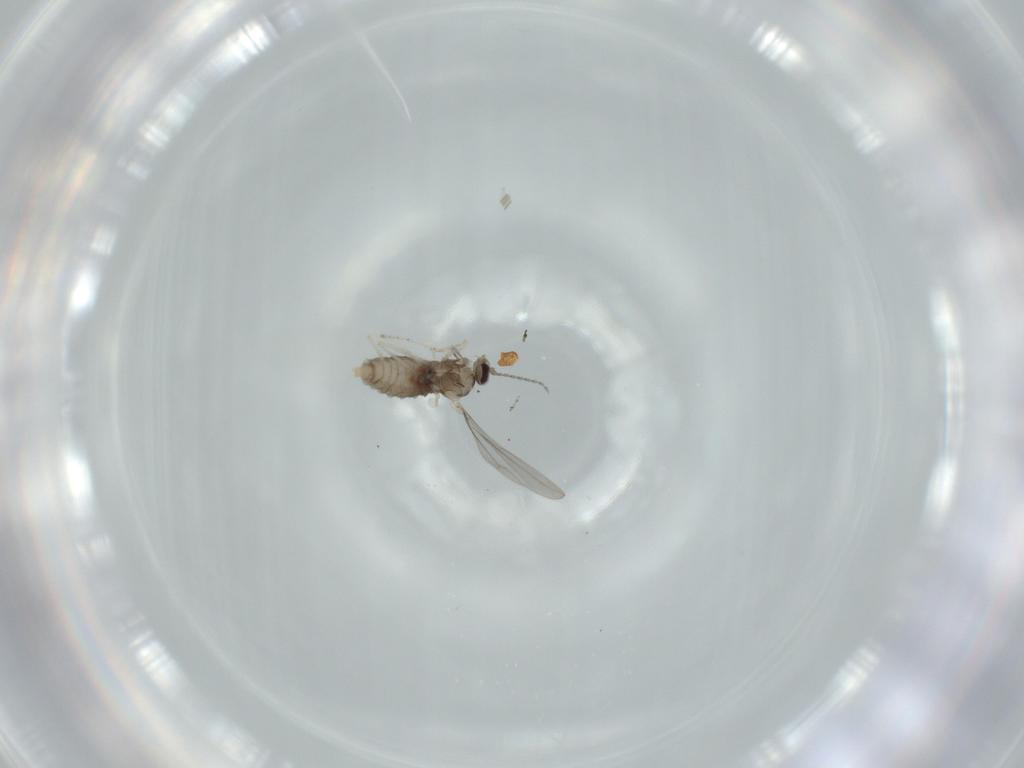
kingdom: Animalia
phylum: Arthropoda
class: Insecta
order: Diptera
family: Cecidomyiidae
